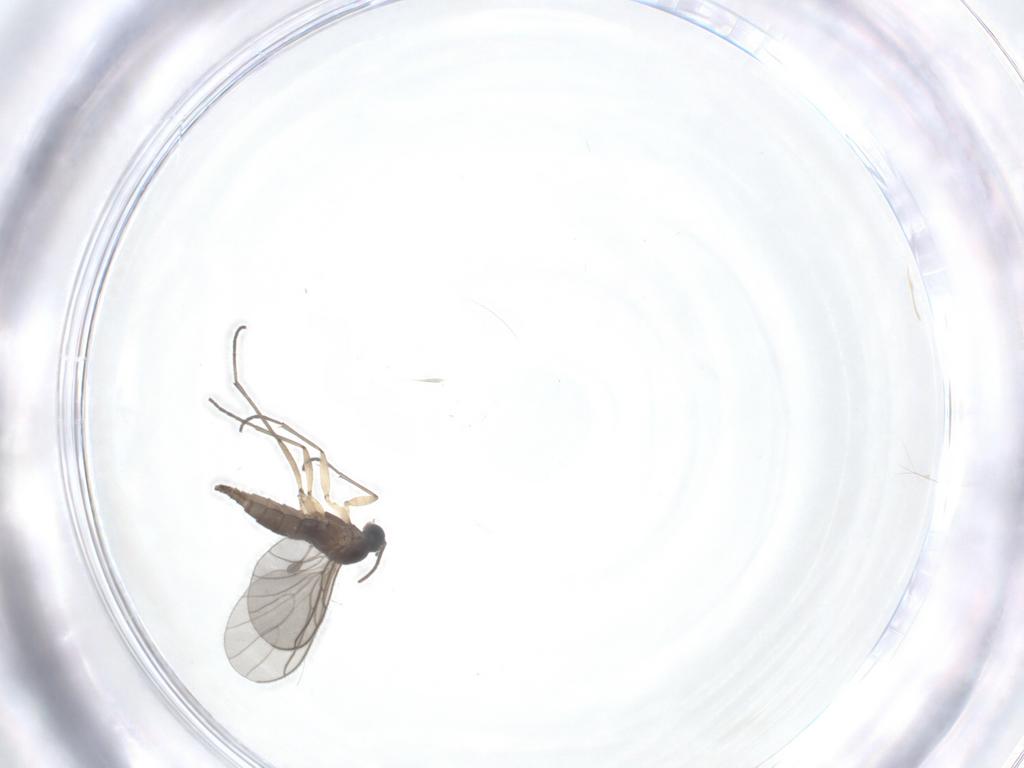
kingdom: Animalia
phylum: Arthropoda
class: Insecta
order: Diptera
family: Sciaridae
